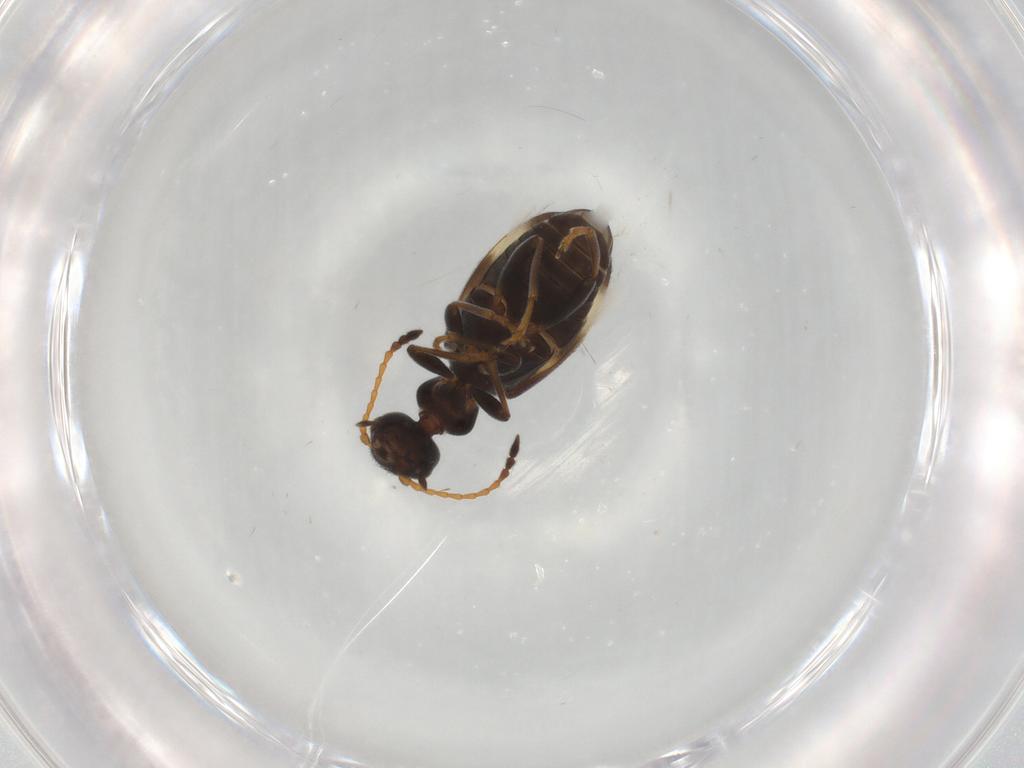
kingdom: Animalia
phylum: Arthropoda
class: Insecta
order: Coleoptera
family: Anthicidae
